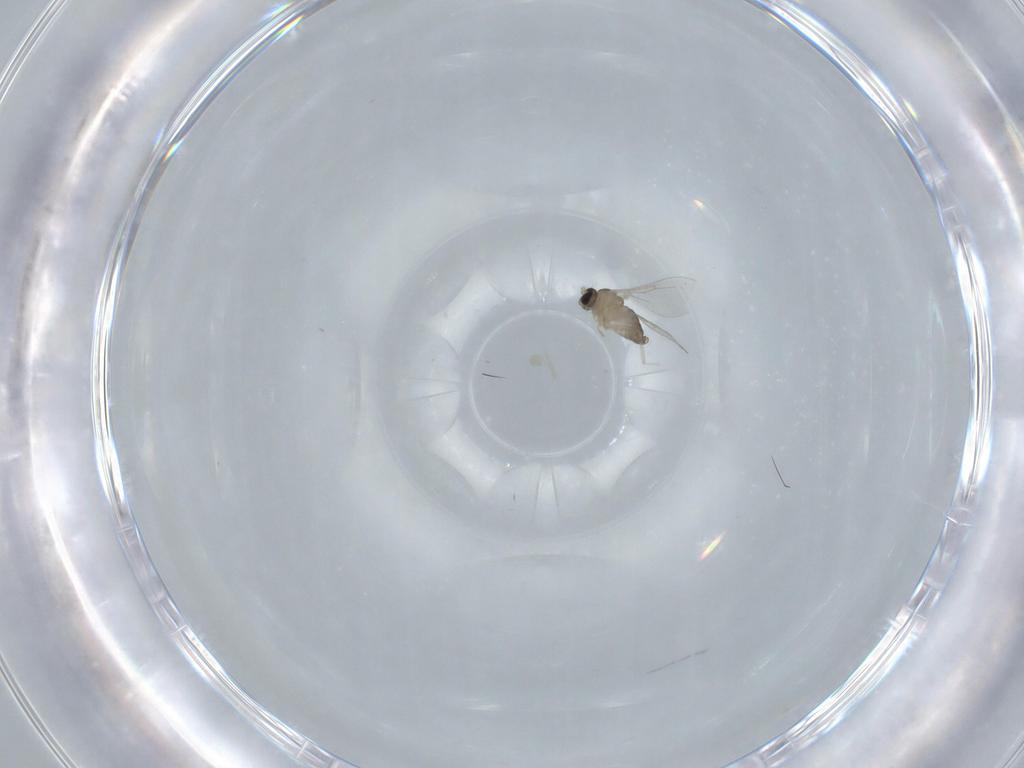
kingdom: Animalia
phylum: Arthropoda
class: Insecta
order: Diptera
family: Cecidomyiidae
